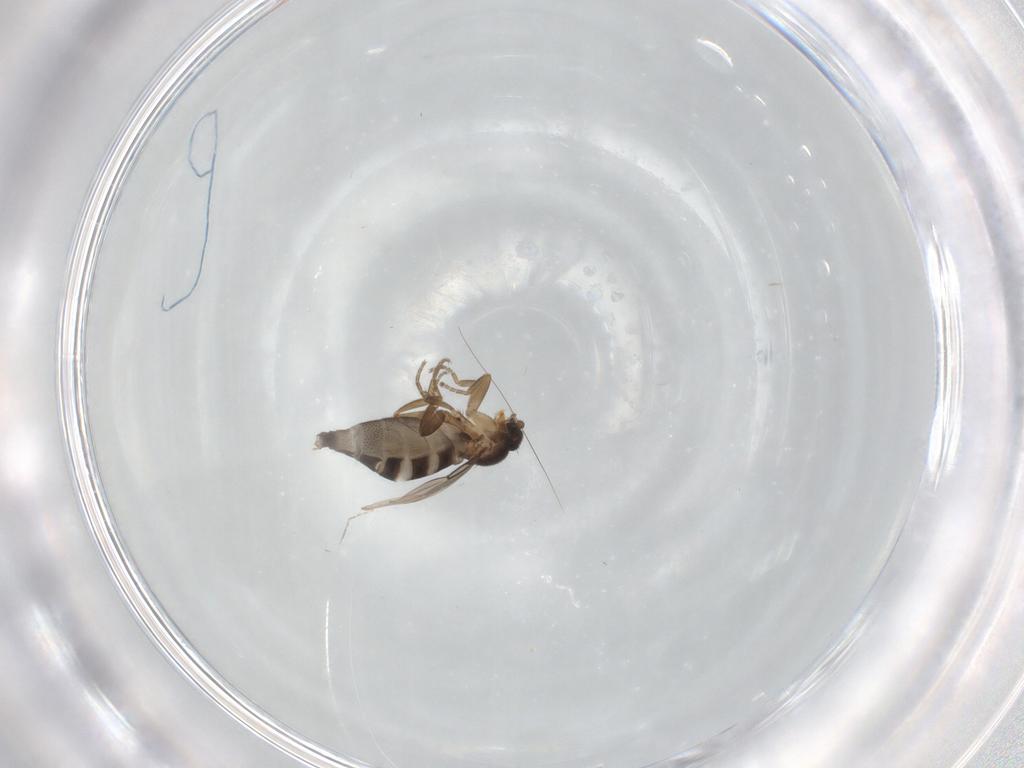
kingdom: Animalia
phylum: Arthropoda
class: Insecta
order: Diptera
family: Phoridae
